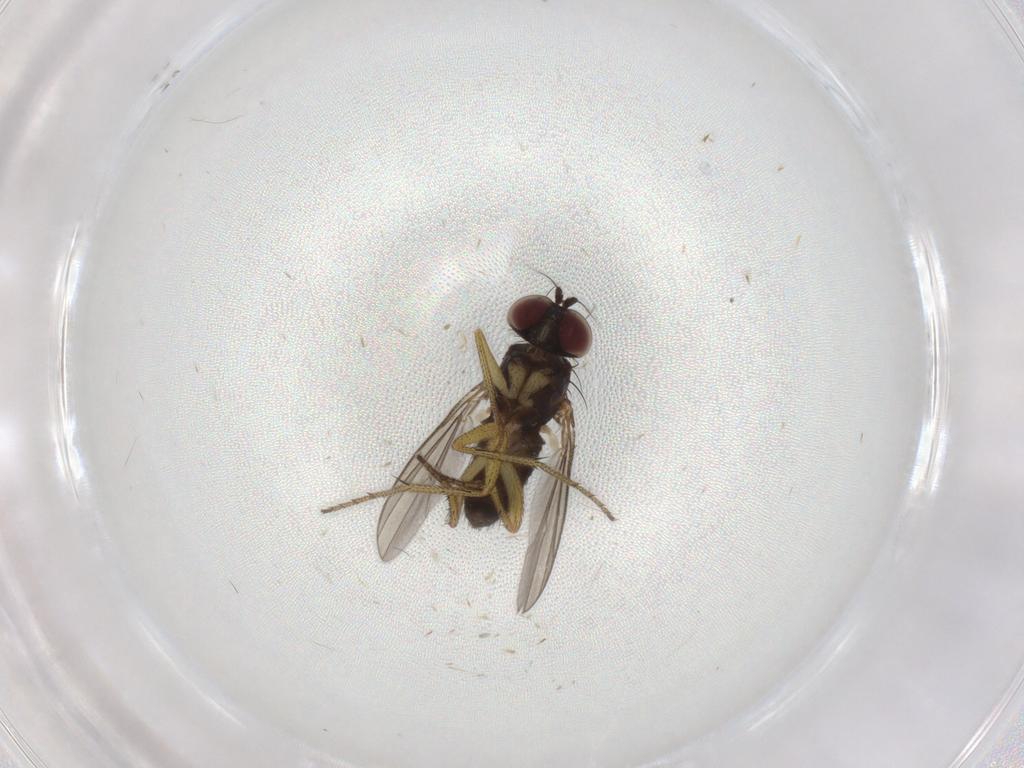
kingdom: Animalia
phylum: Arthropoda
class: Insecta
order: Diptera
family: Dolichopodidae
